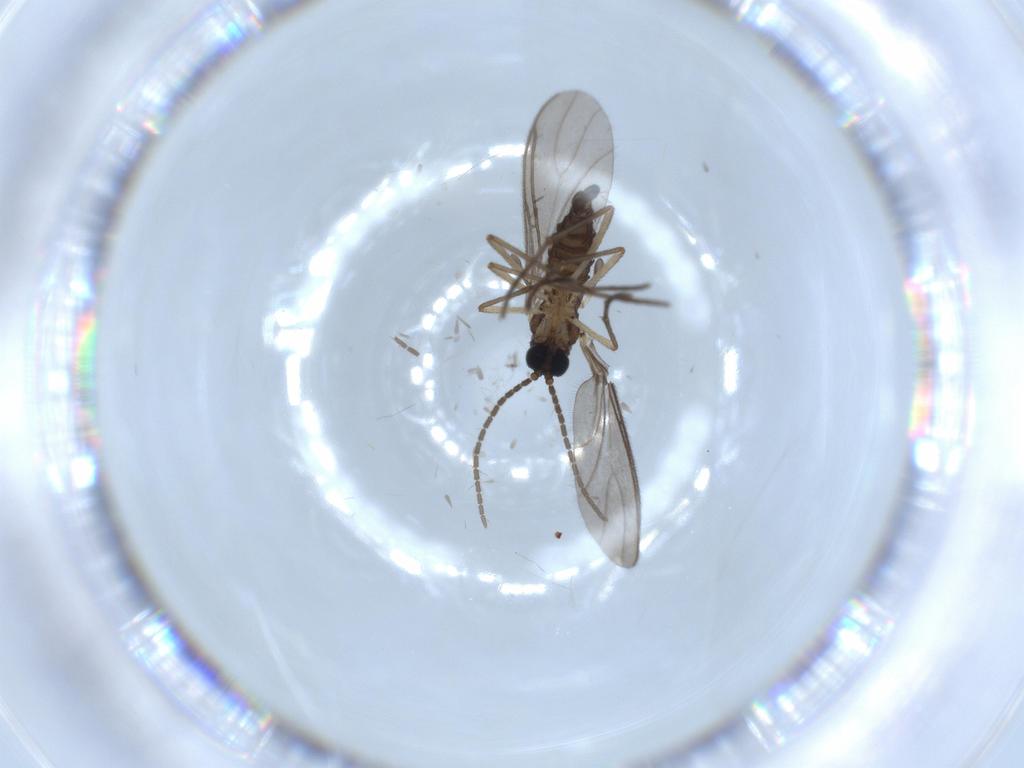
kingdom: Animalia
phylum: Arthropoda
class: Insecta
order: Diptera
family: Sciaridae
